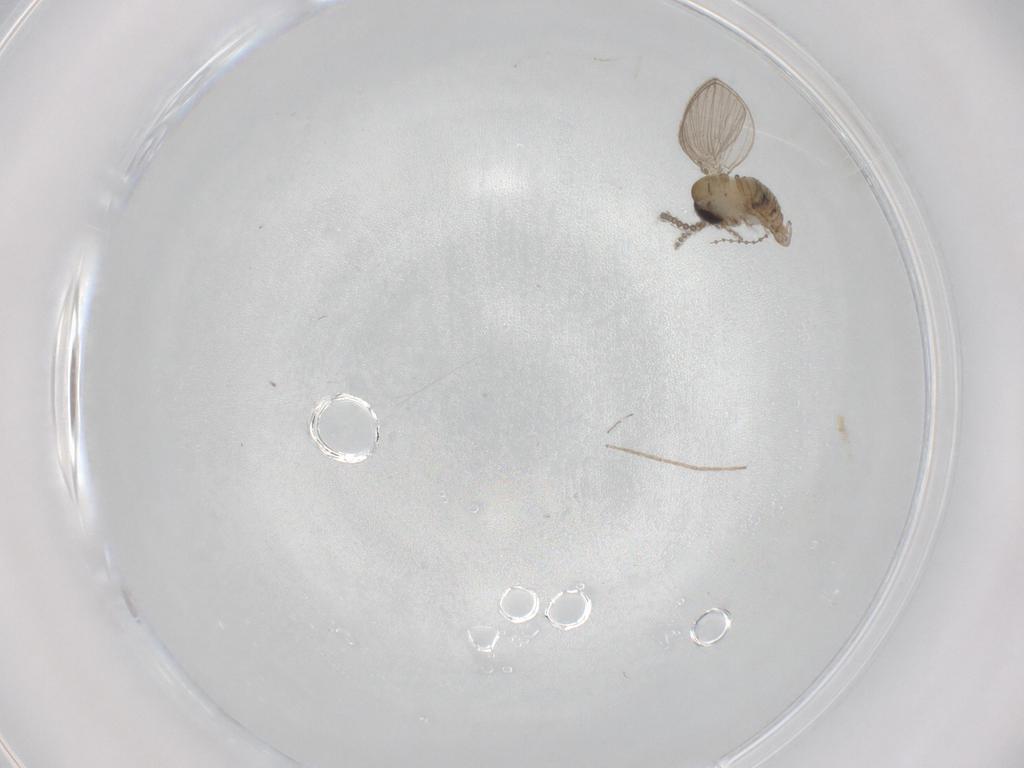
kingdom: Animalia
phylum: Arthropoda
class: Insecta
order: Diptera
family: Psychodidae
